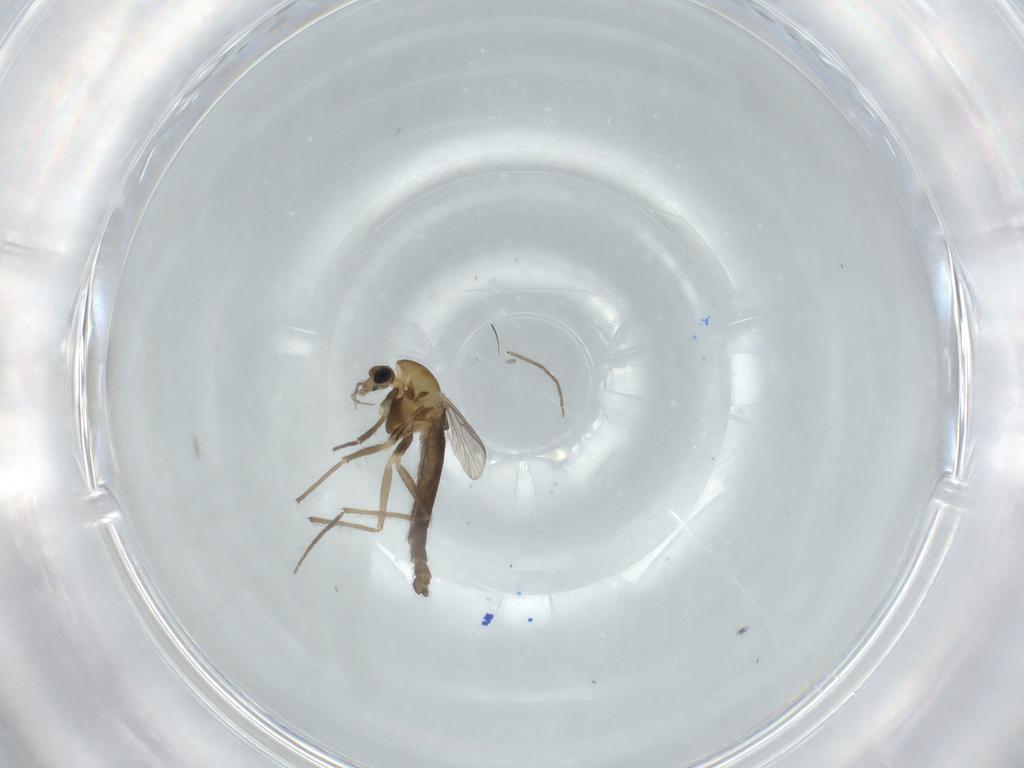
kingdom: Animalia
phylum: Arthropoda
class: Insecta
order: Diptera
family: Chironomidae
